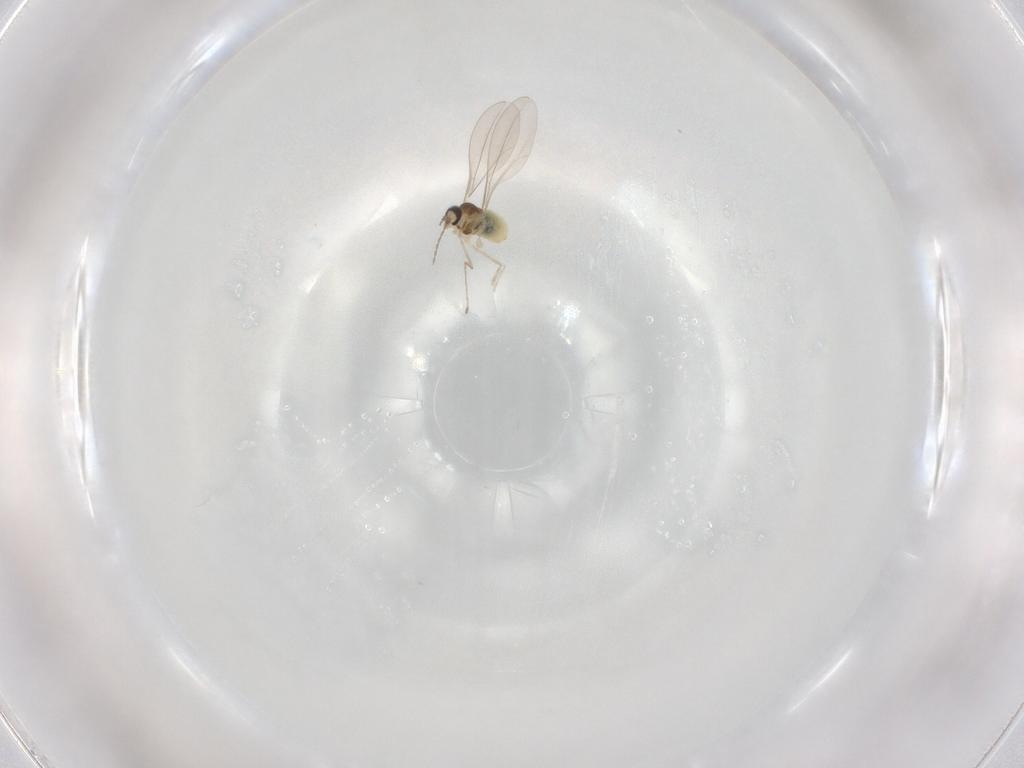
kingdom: Animalia
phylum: Arthropoda
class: Insecta
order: Diptera
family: Cecidomyiidae
